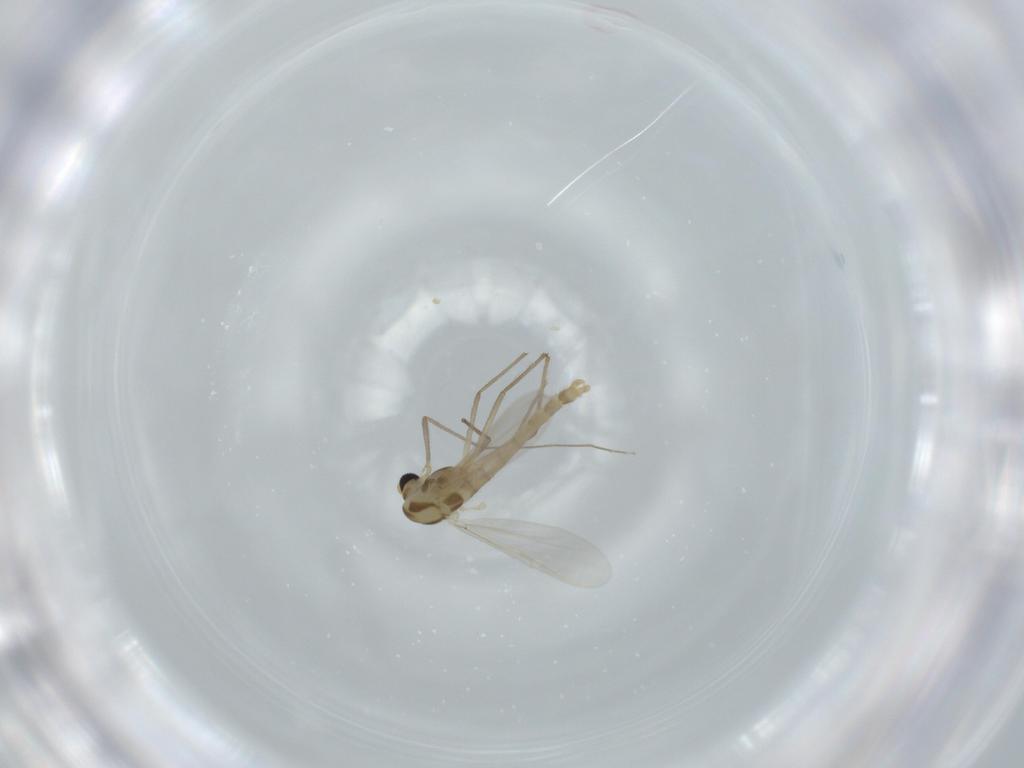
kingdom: Animalia
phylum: Arthropoda
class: Insecta
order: Diptera
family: Chironomidae
